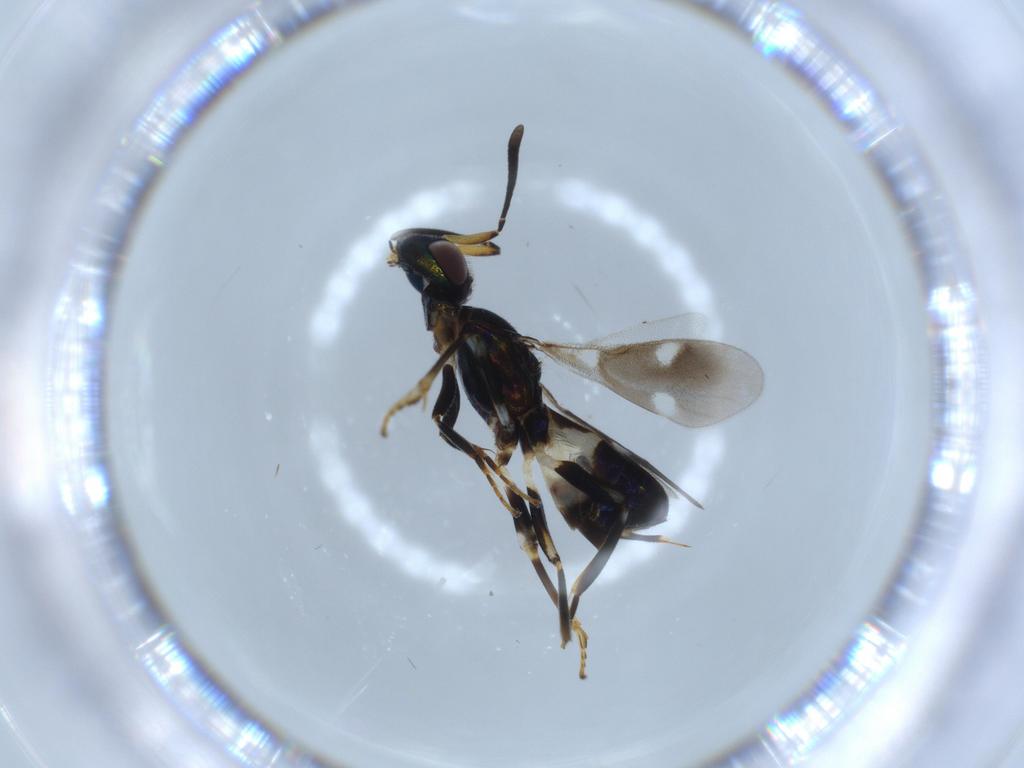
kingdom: Animalia
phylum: Arthropoda
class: Insecta
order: Hymenoptera
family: Eupelmidae
